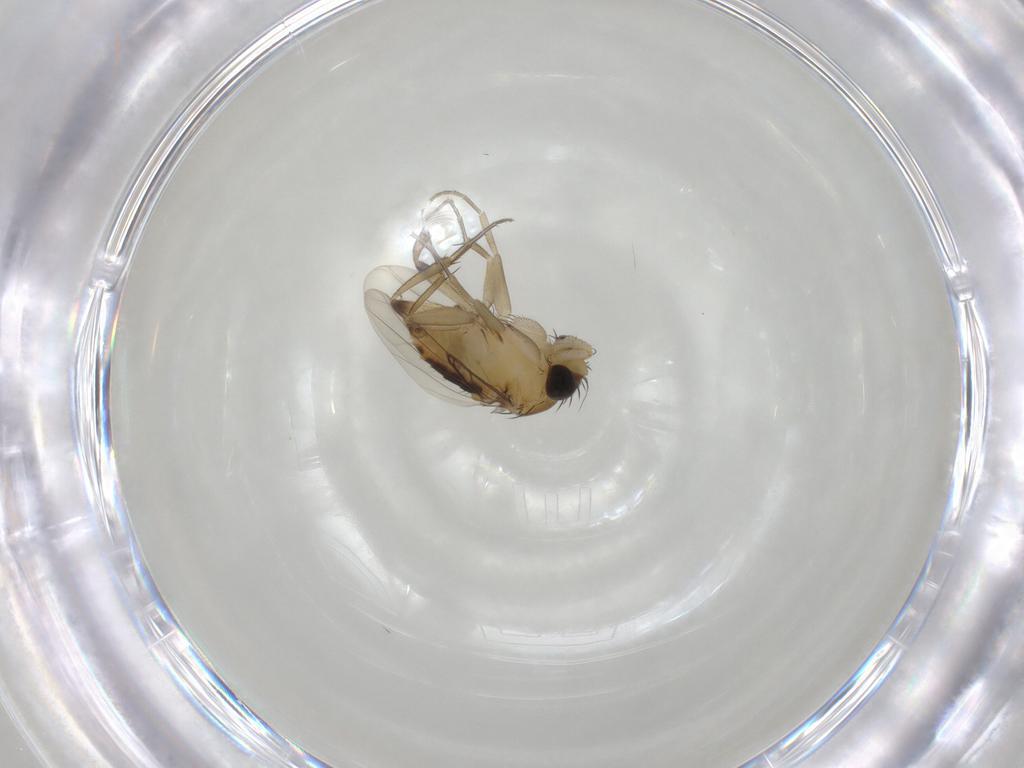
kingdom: Animalia
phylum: Arthropoda
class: Insecta
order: Diptera
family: Phoridae
